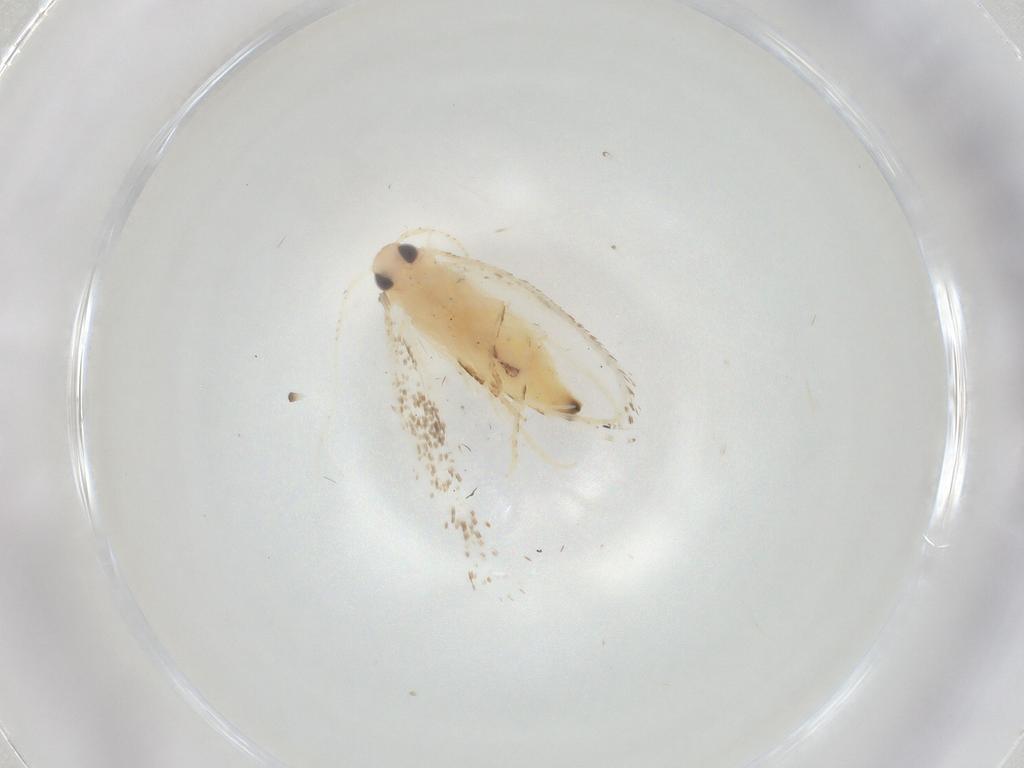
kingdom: Animalia
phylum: Arthropoda
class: Insecta
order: Lepidoptera
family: Gelechiidae
